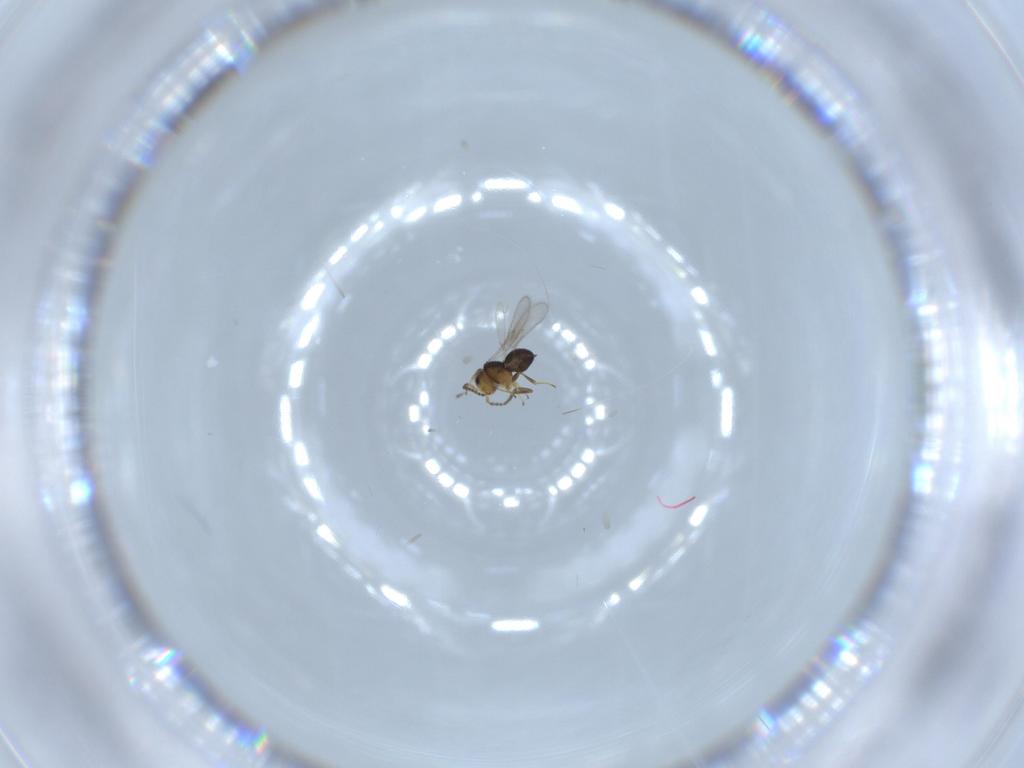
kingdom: Animalia
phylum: Arthropoda
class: Insecta
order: Hymenoptera
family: Scelionidae
